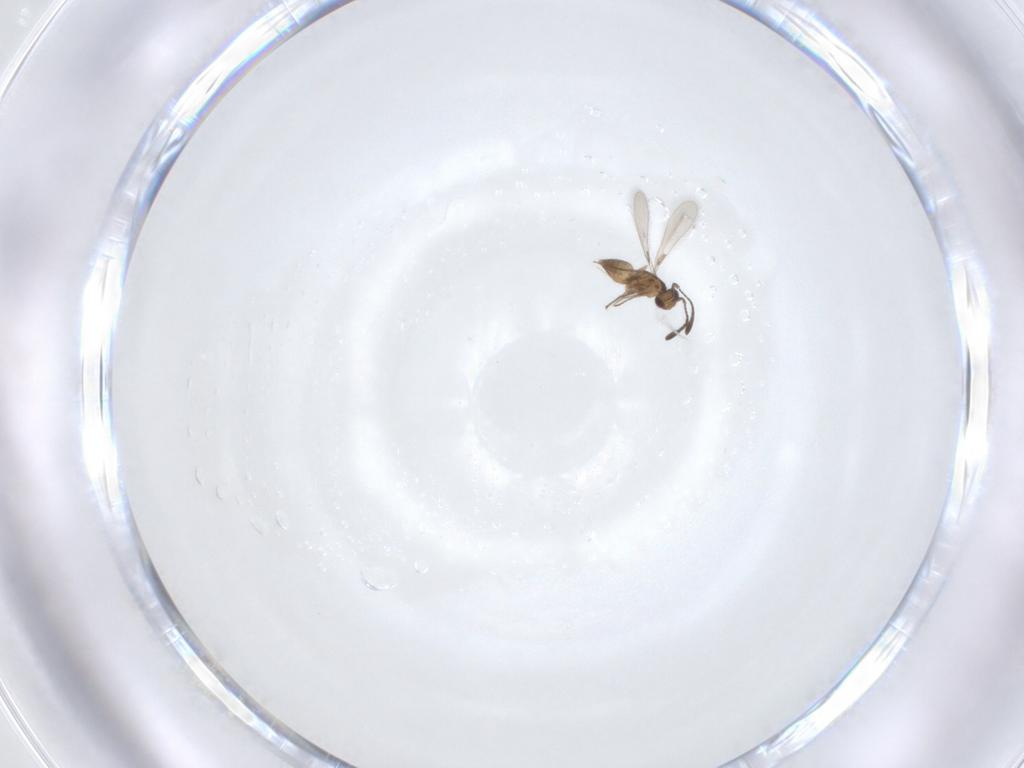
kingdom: Animalia
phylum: Arthropoda
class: Insecta
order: Hymenoptera
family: Mymaridae
